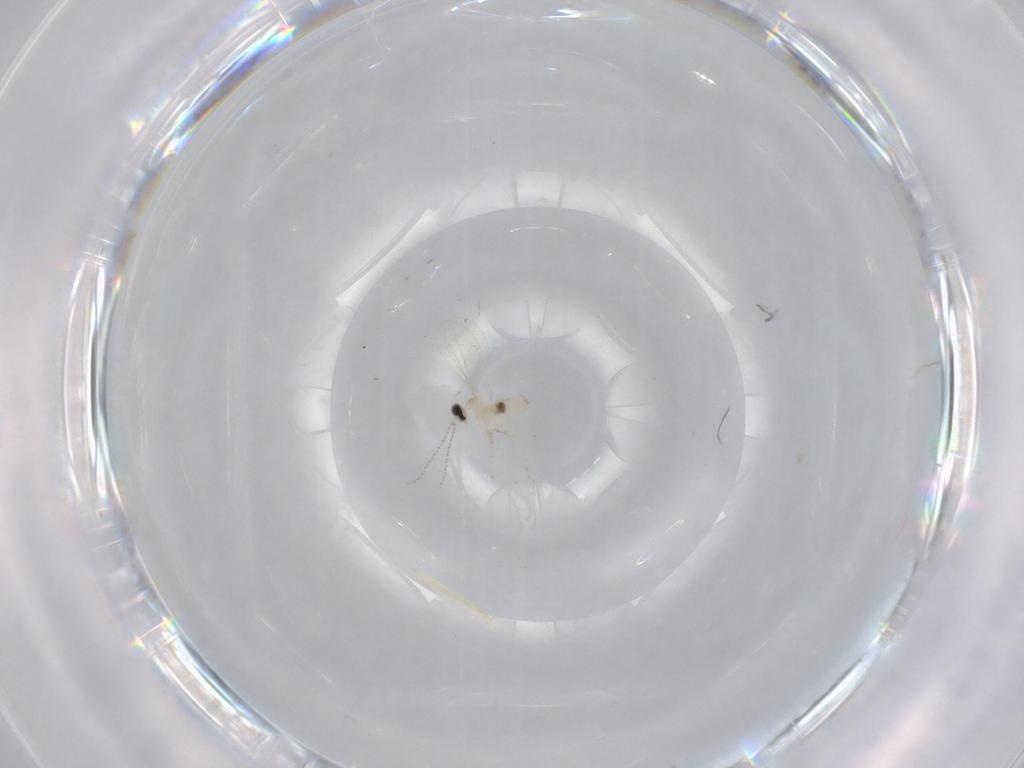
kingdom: Animalia
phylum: Arthropoda
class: Insecta
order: Diptera
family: Cecidomyiidae
